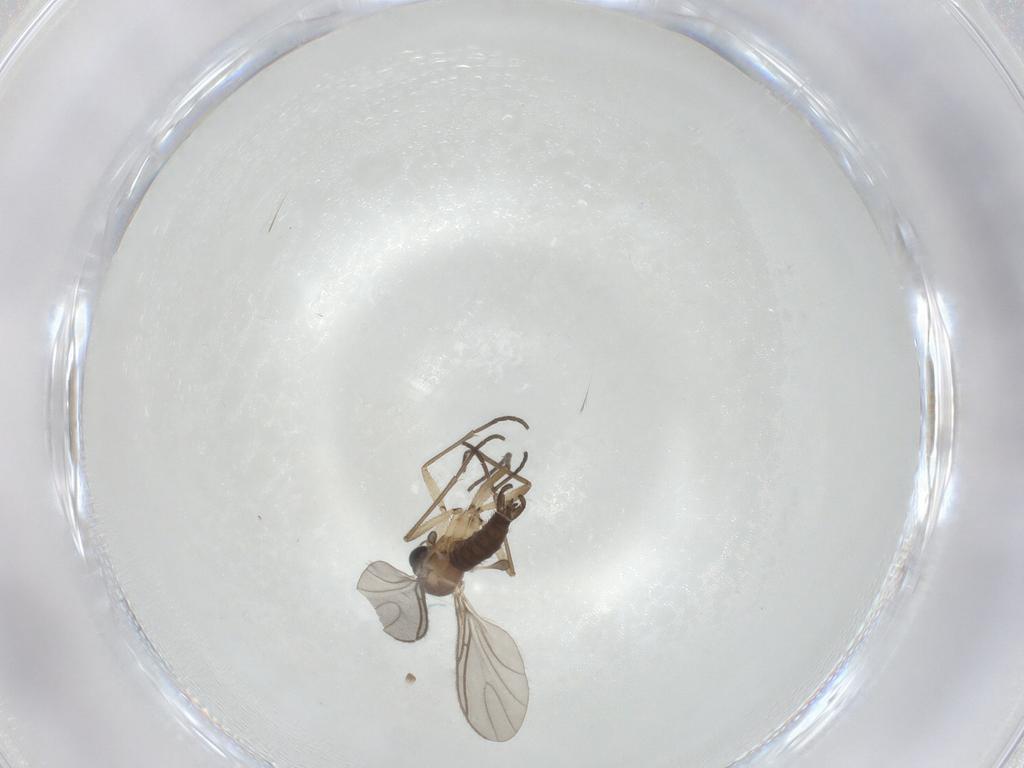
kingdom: Animalia
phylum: Arthropoda
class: Insecta
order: Diptera
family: Sciaridae
